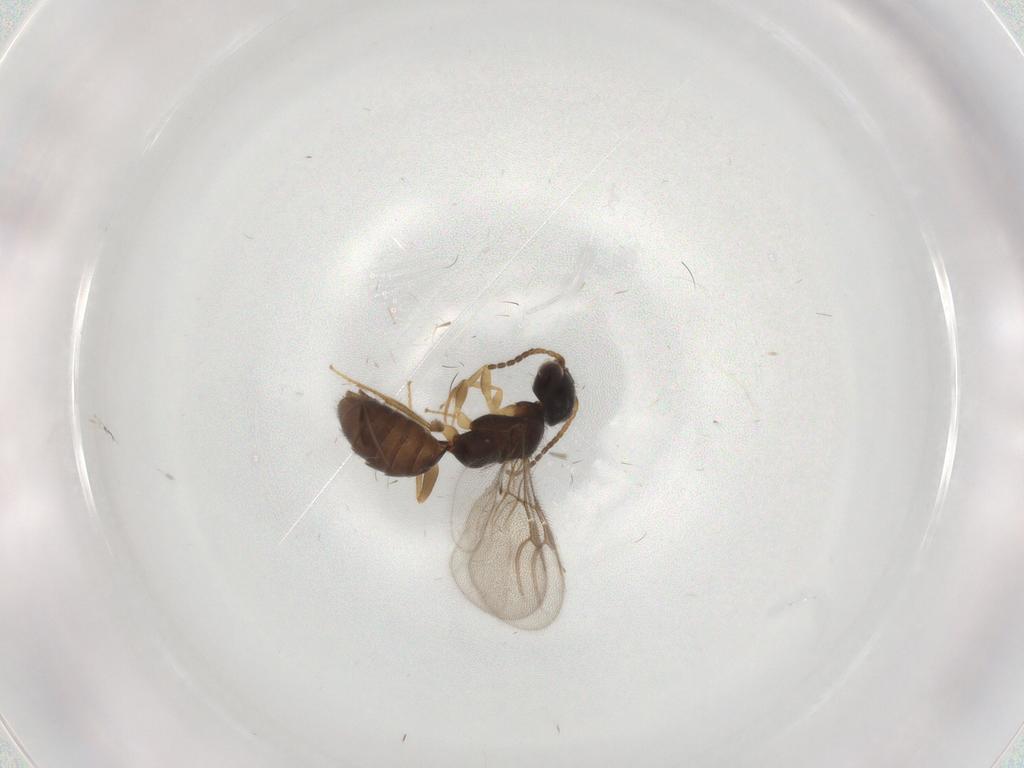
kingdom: Animalia
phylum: Arthropoda
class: Insecta
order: Hymenoptera
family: Bethylidae
